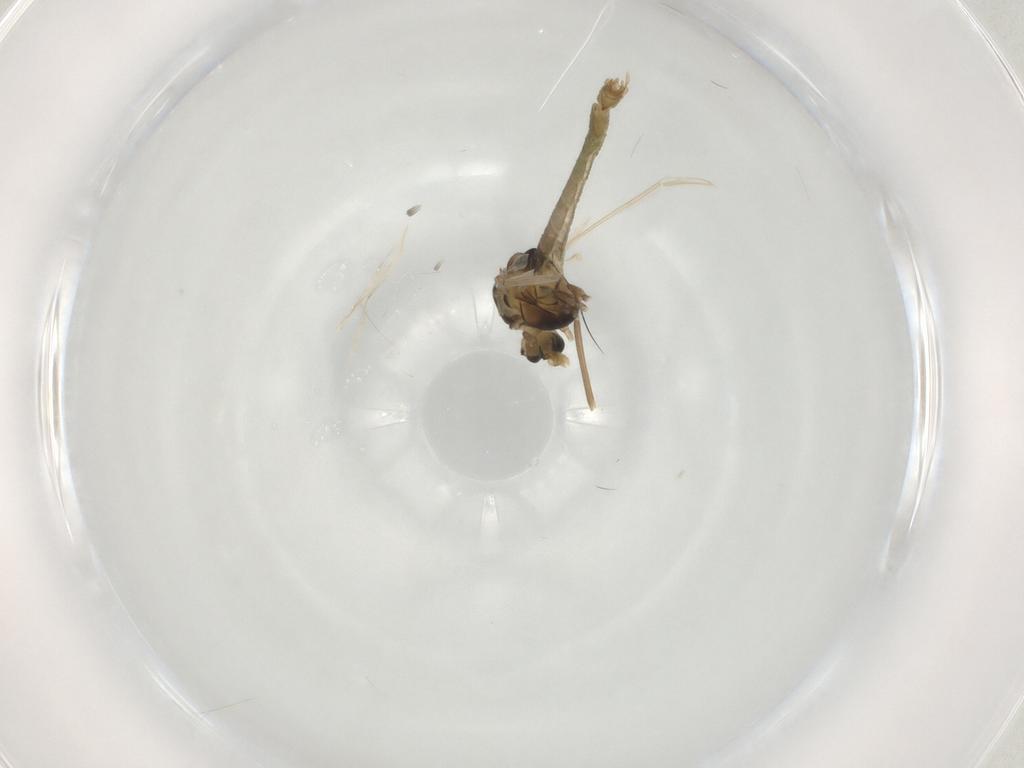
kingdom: Animalia
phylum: Arthropoda
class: Insecta
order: Diptera
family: Chironomidae
